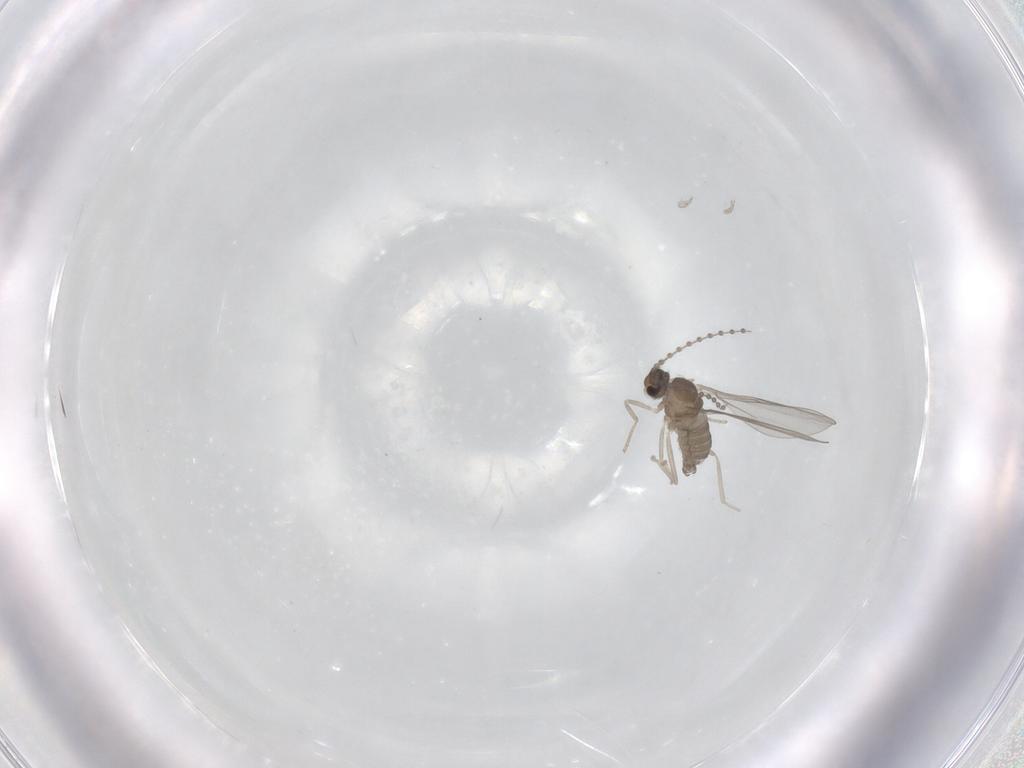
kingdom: Animalia
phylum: Arthropoda
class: Insecta
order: Diptera
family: Cecidomyiidae
